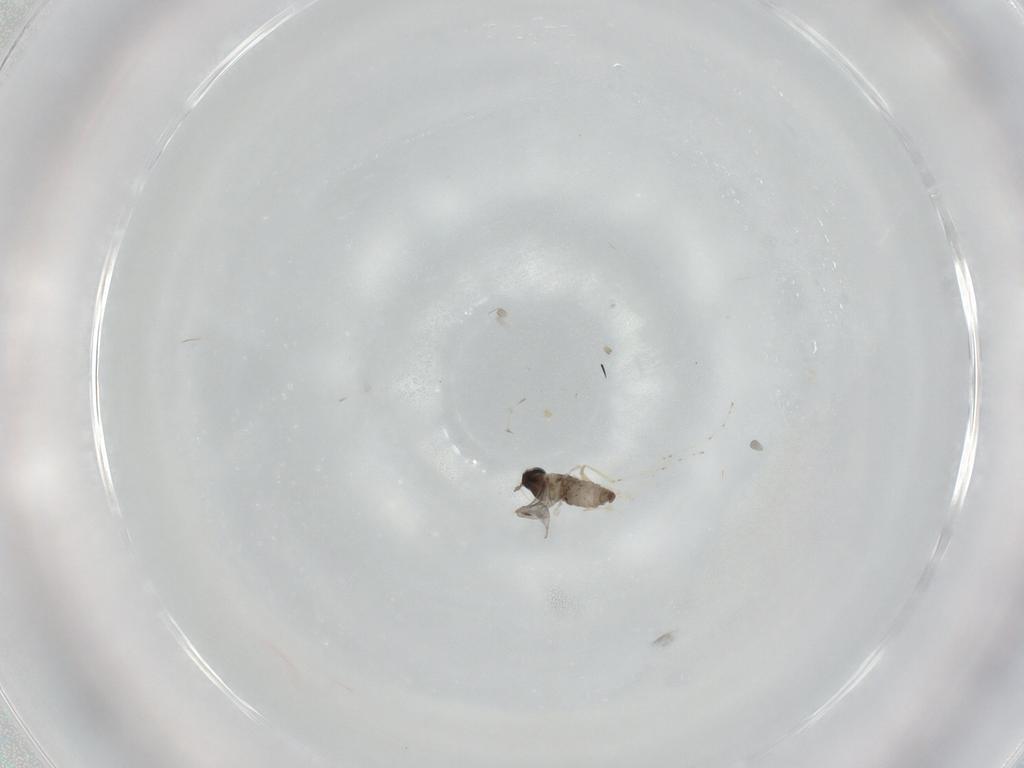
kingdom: Animalia
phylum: Arthropoda
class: Insecta
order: Diptera
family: Cecidomyiidae
